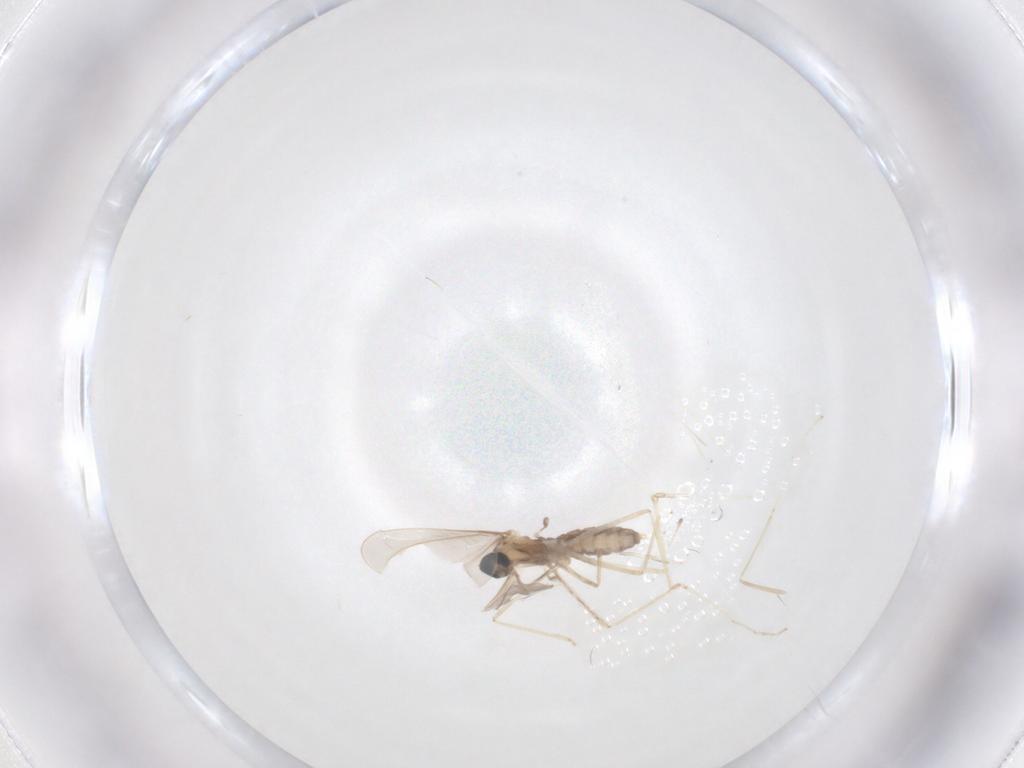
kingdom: Animalia
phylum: Arthropoda
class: Insecta
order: Diptera
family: Cecidomyiidae
